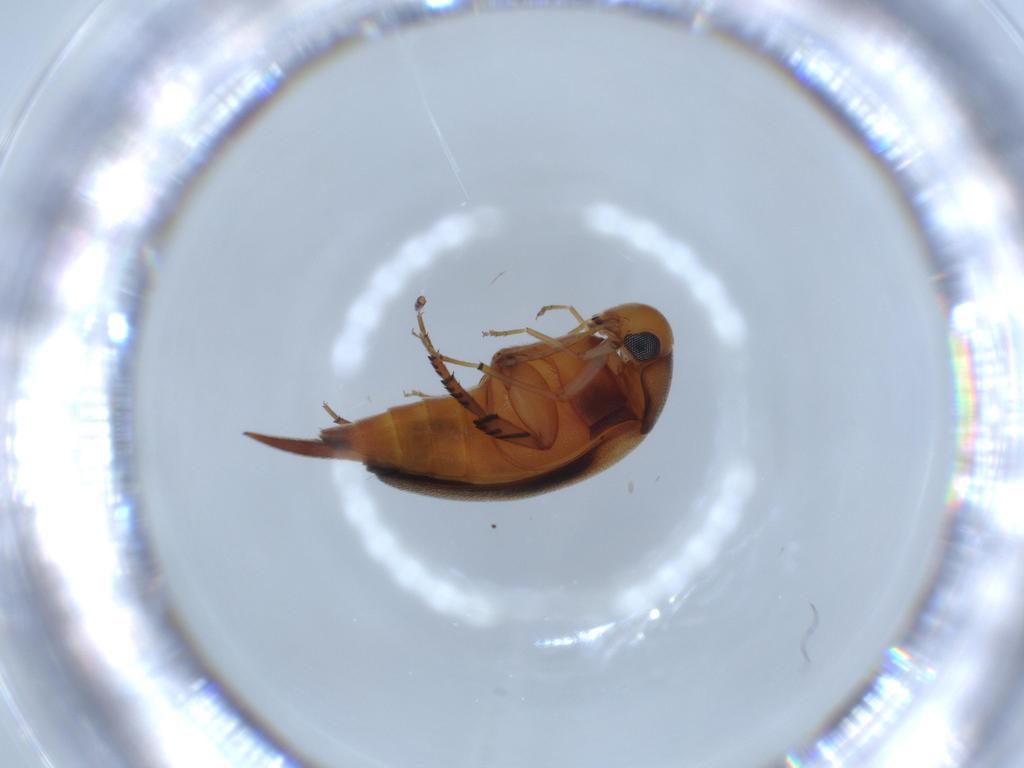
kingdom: Animalia
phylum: Arthropoda
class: Insecta
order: Coleoptera
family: Mordellidae
